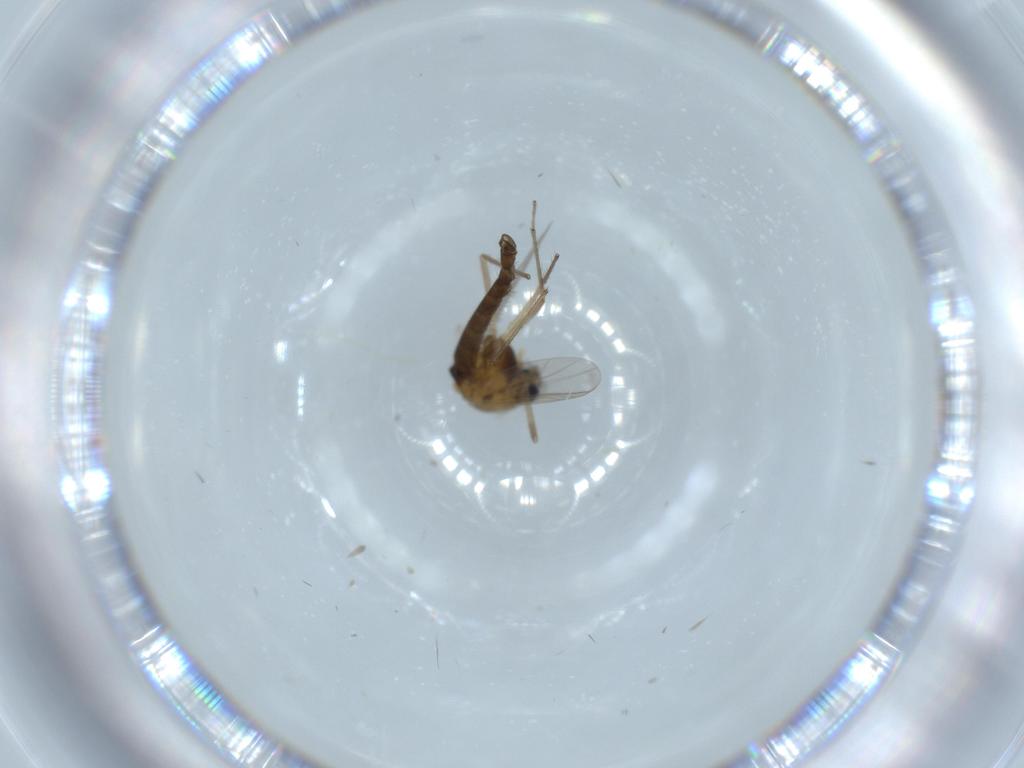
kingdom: Animalia
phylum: Arthropoda
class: Insecta
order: Diptera
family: Chironomidae
